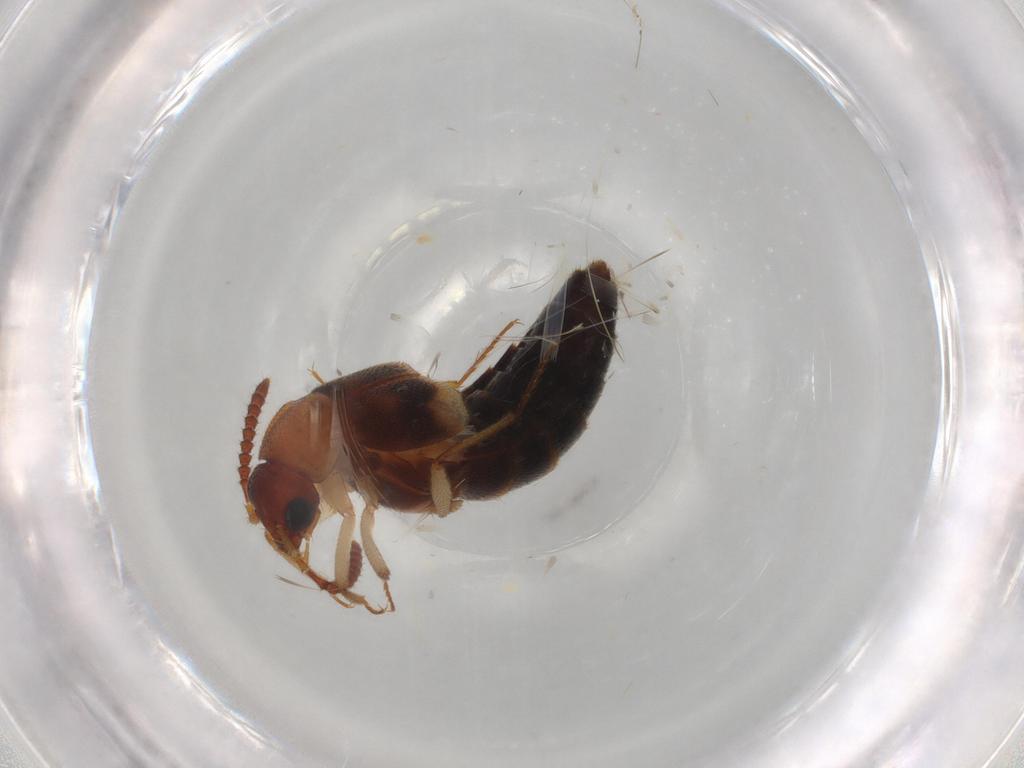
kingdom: Animalia
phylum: Arthropoda
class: Insecta
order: Coleoptera
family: Staphylinidae
